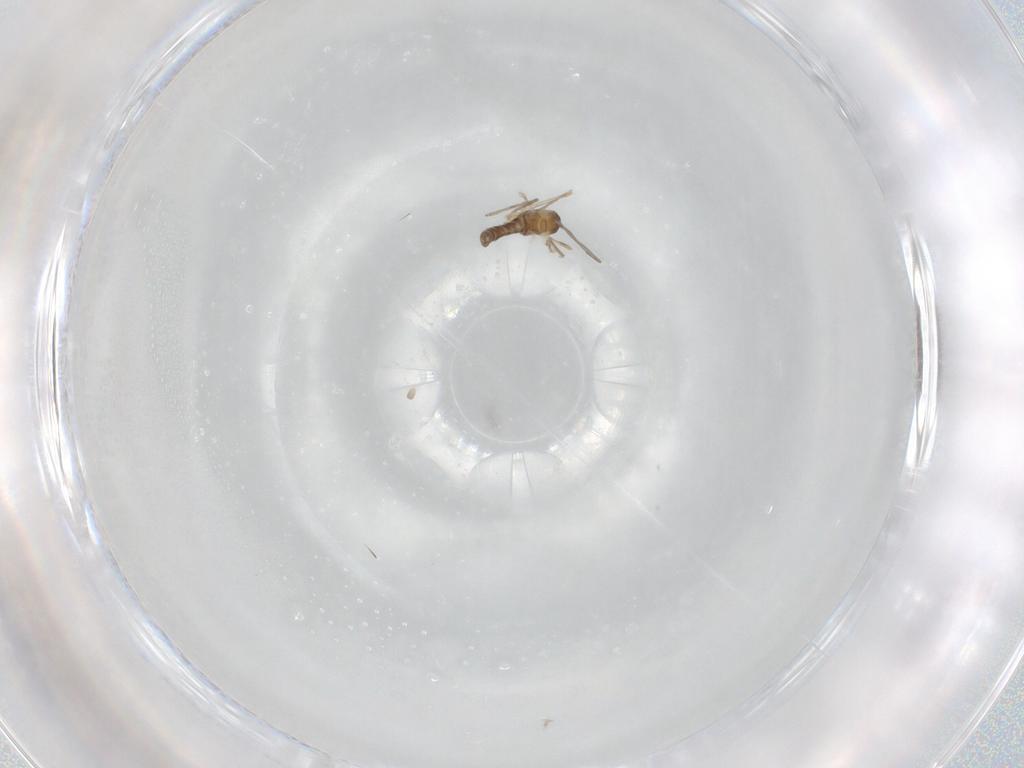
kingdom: Animalia
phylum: Arthropoda
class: Insecta
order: Diptera
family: Cecidomyiidae
